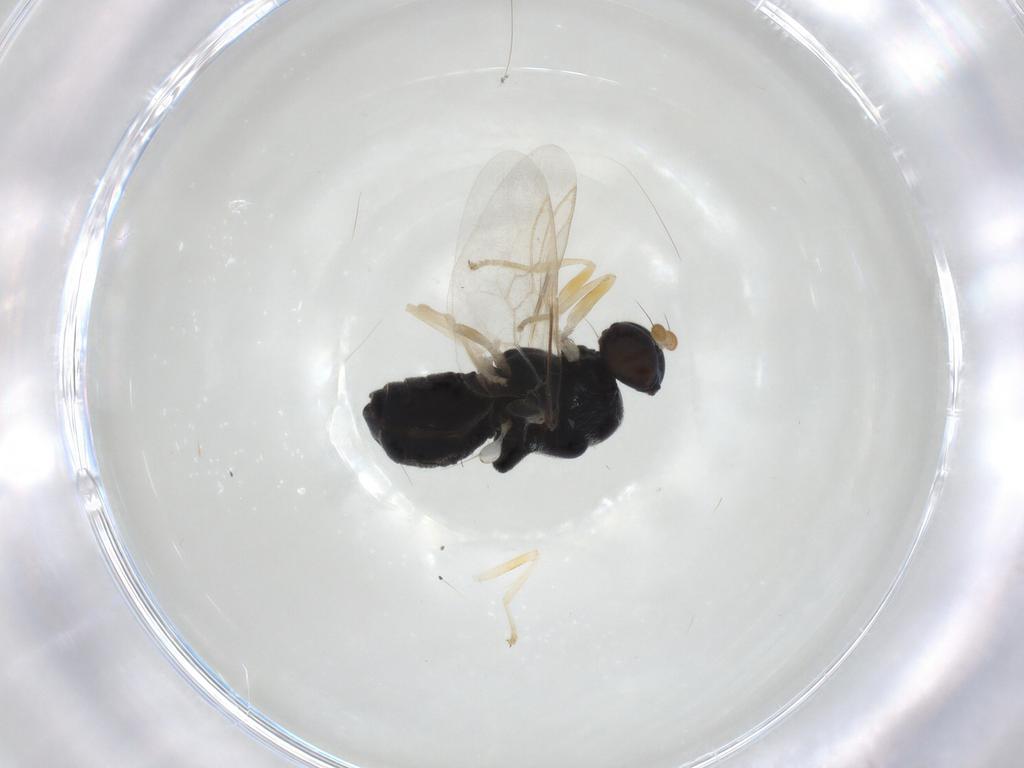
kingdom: Animalia
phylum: Arthropoda
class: Insecta
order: Diptera
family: Stratiomyidae
